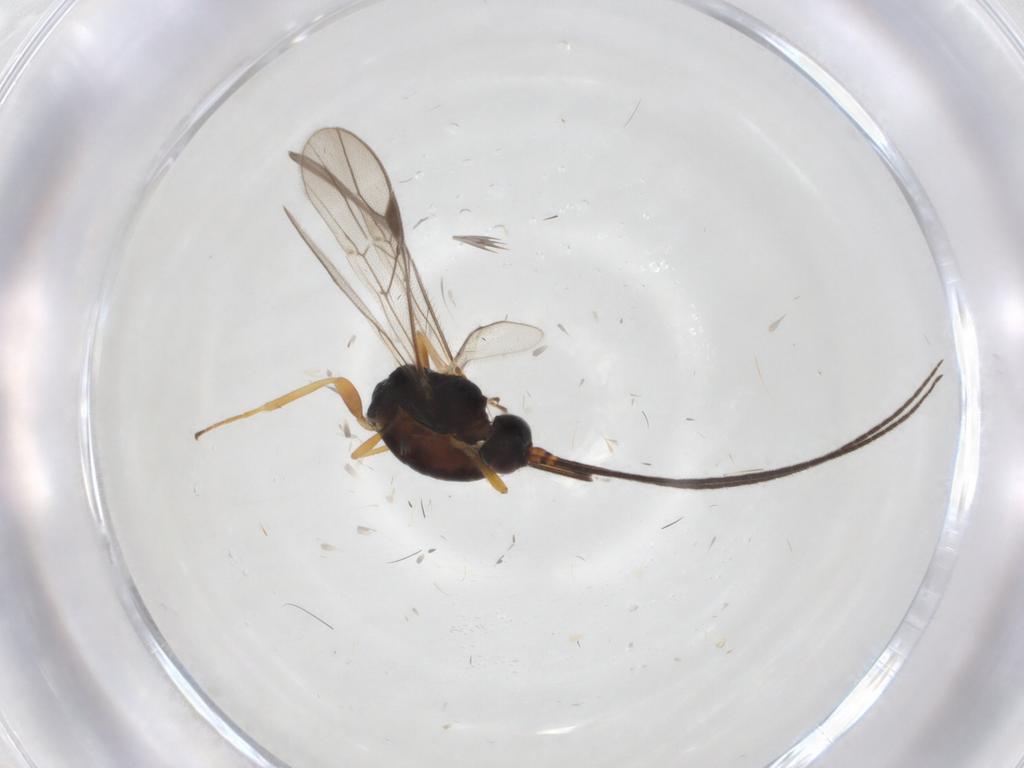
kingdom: Animalia
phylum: Arthropoda
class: Insecta
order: Hymenoptera
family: Braconidae
